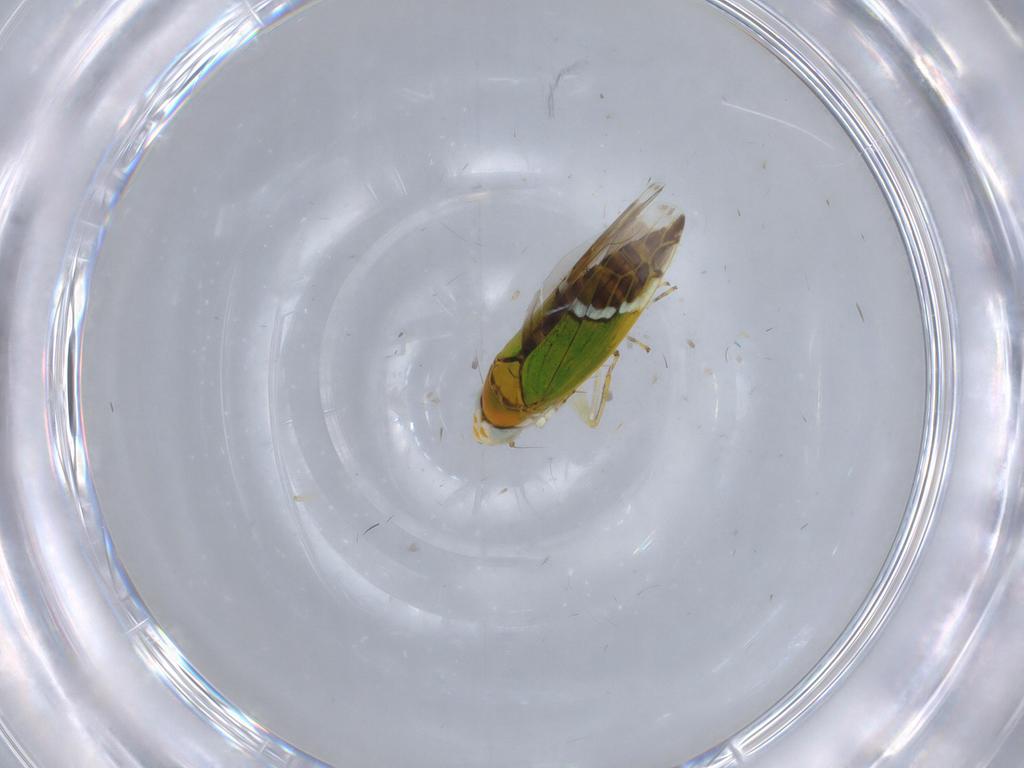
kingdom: Animalia
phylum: Arthropoda
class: Insecta
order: Hemiptera
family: Cicadellidae
